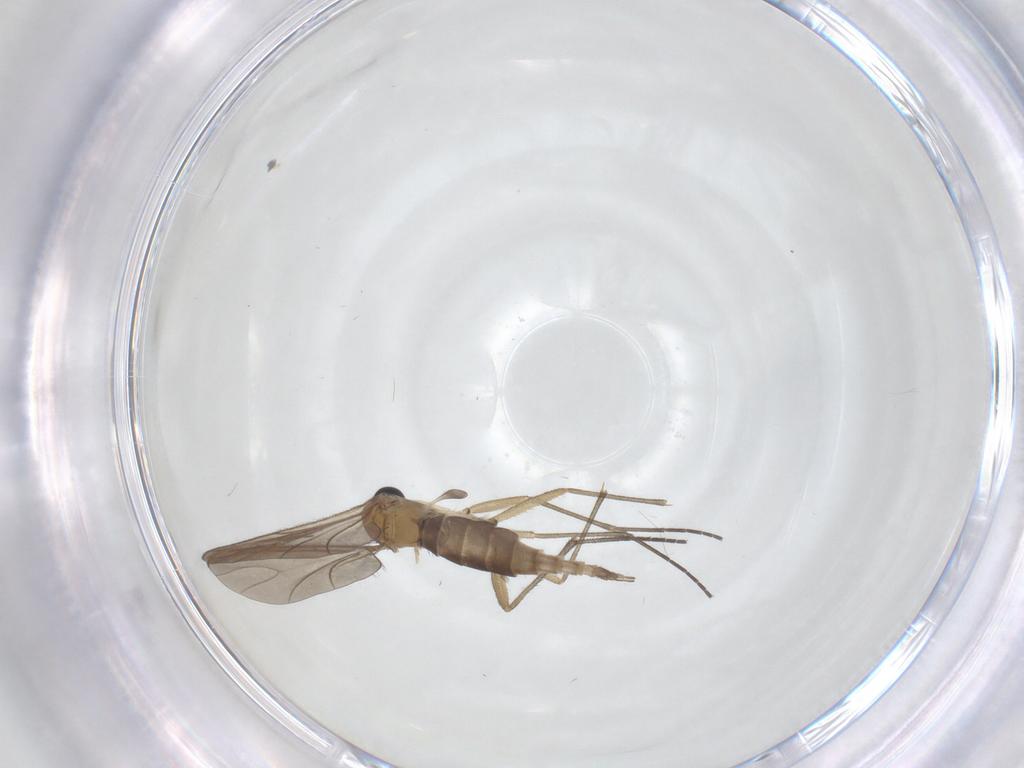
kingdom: Animalia
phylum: Arthropoda
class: Insecta
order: Diptera
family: Sciaridae
